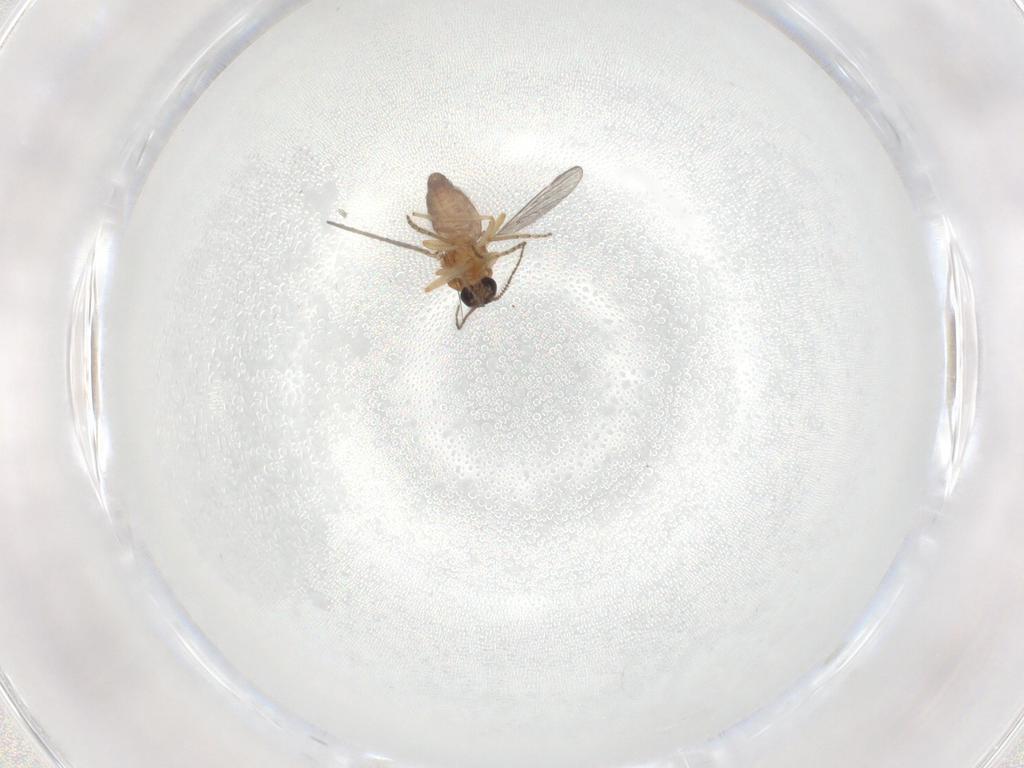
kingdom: Animalia
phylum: Arthropoda
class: Insecta
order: Diptera
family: Ceratopogonidae
